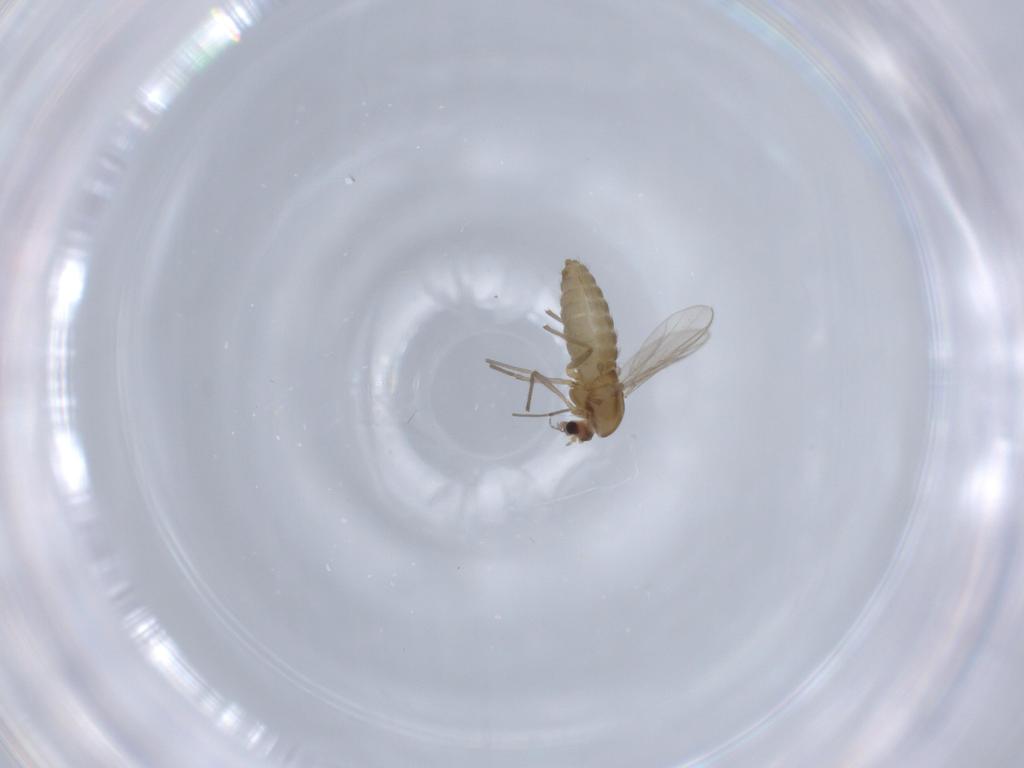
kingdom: Animalia
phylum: Arthropoda
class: Insecta
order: Diptera
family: Chironomidae
